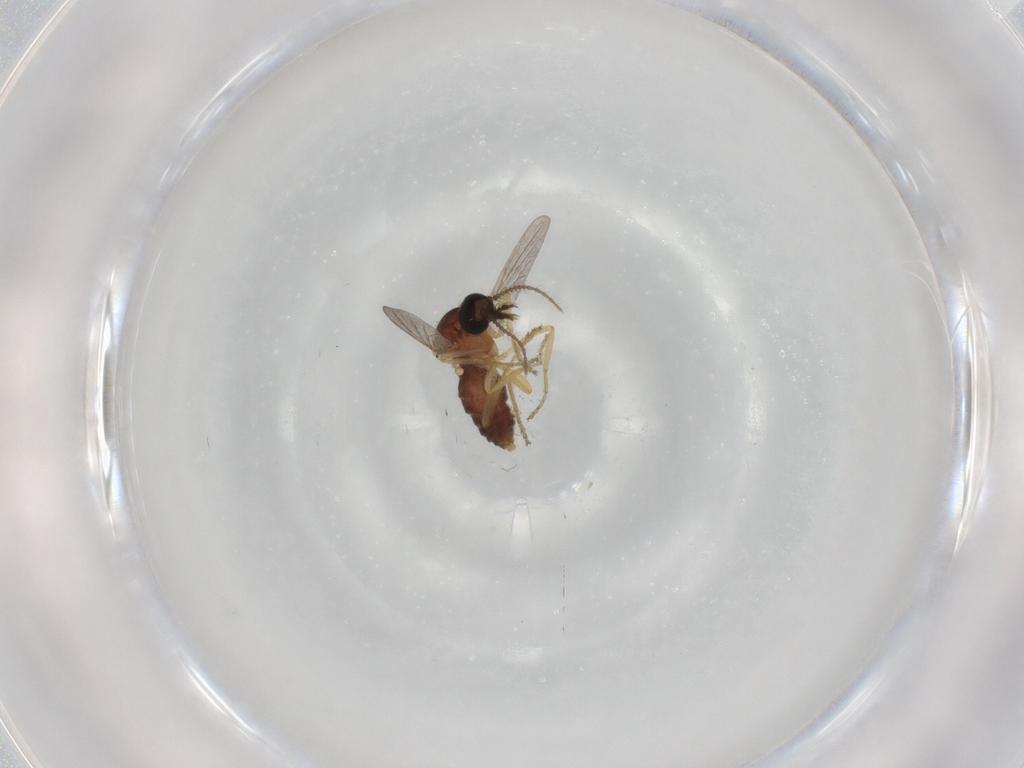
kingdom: Animalia
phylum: Arthropoda
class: Insecta
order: Diptera
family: Ceratopogonidae
